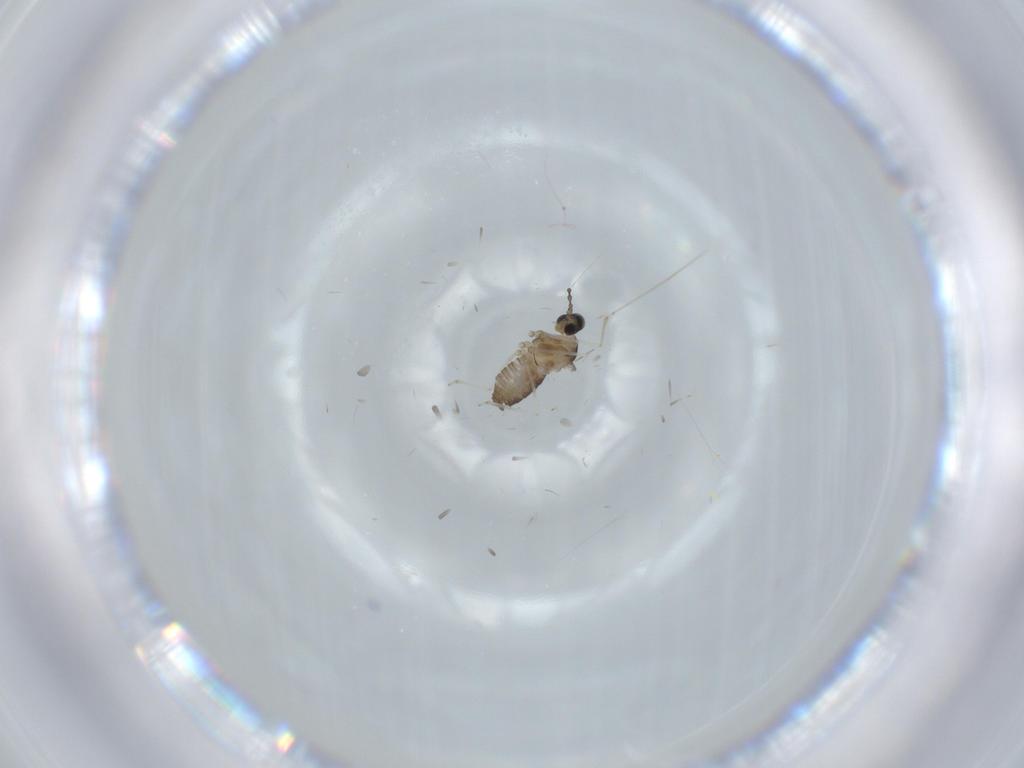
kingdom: Animalia
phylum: Arthropoda
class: Insecta
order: Diptera
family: Cecidomyiidae
